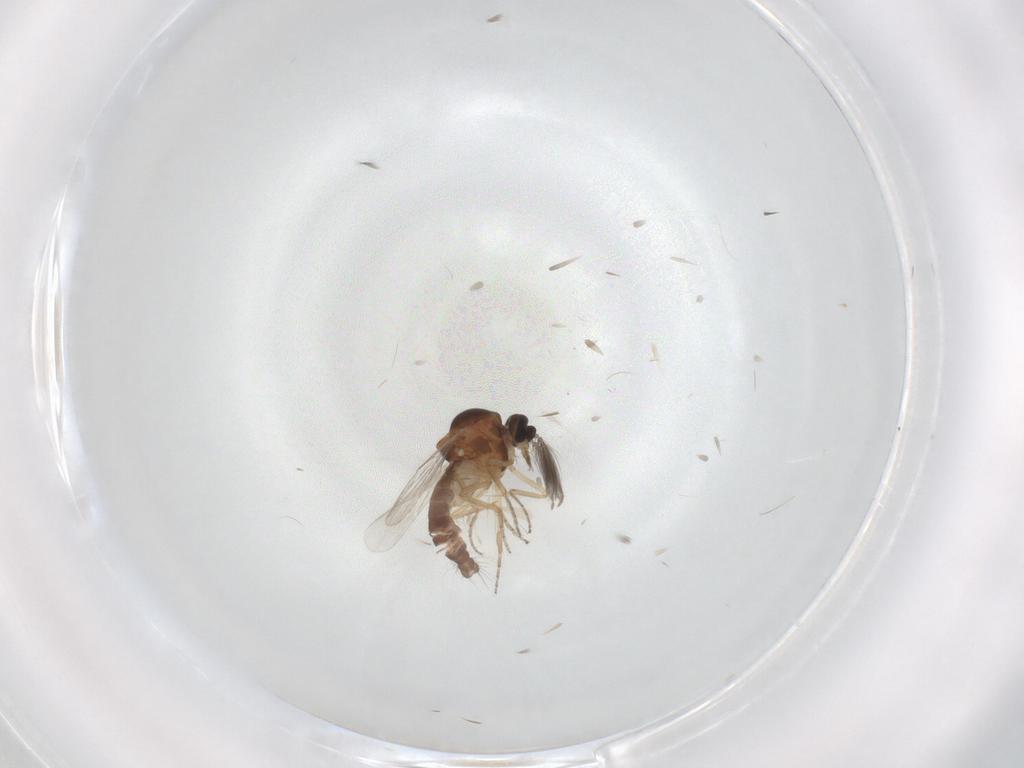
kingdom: Animalia
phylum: Arthropoda
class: Insecta
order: Diptera
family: Ceratopogonidae
